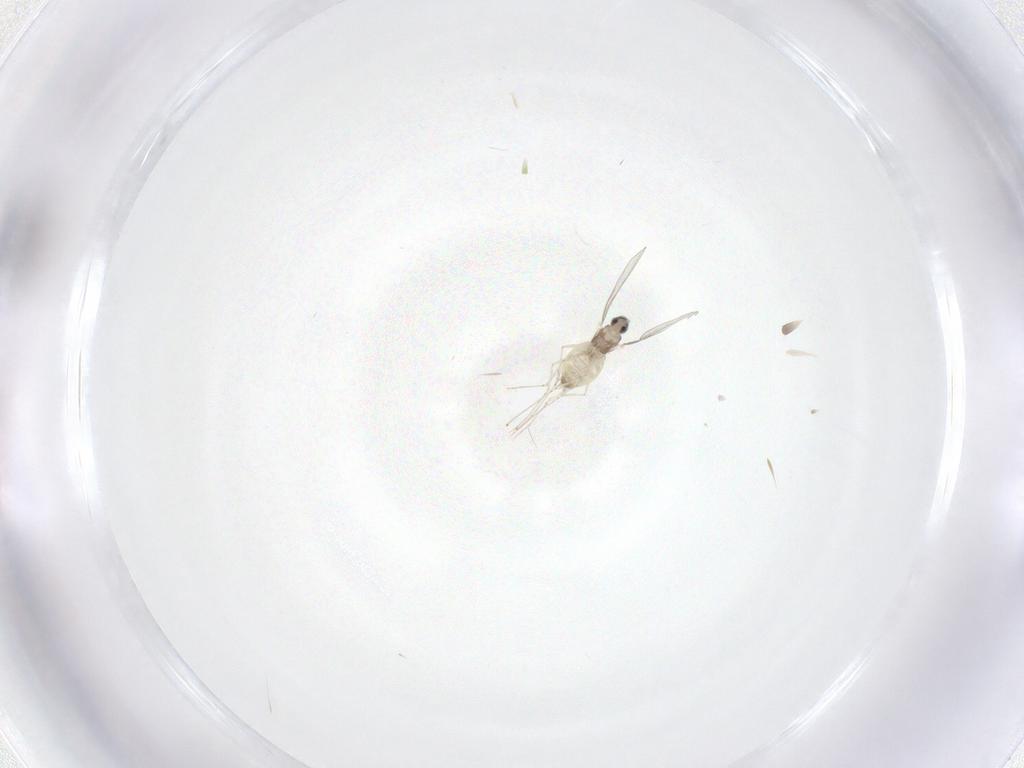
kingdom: Animalia
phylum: Arthropoda
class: Insecta
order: Diptera
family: Cecidomyiidae
